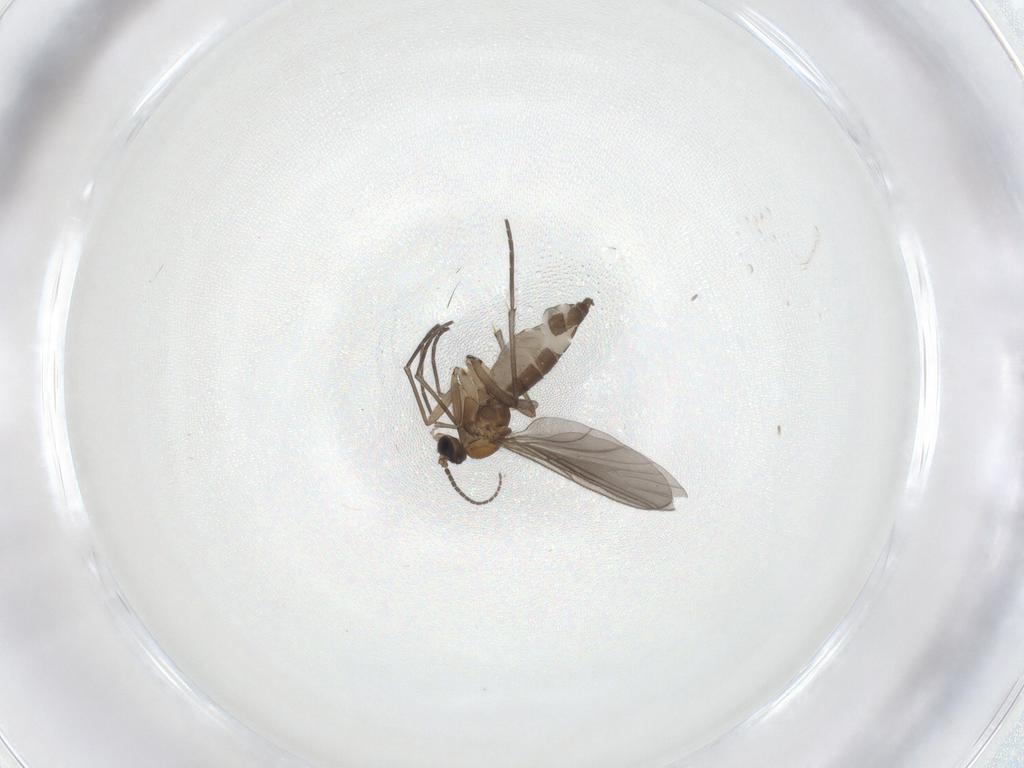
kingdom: Animalia
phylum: Arthropoda
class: Insecta
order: Diptera
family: Sciaridae
